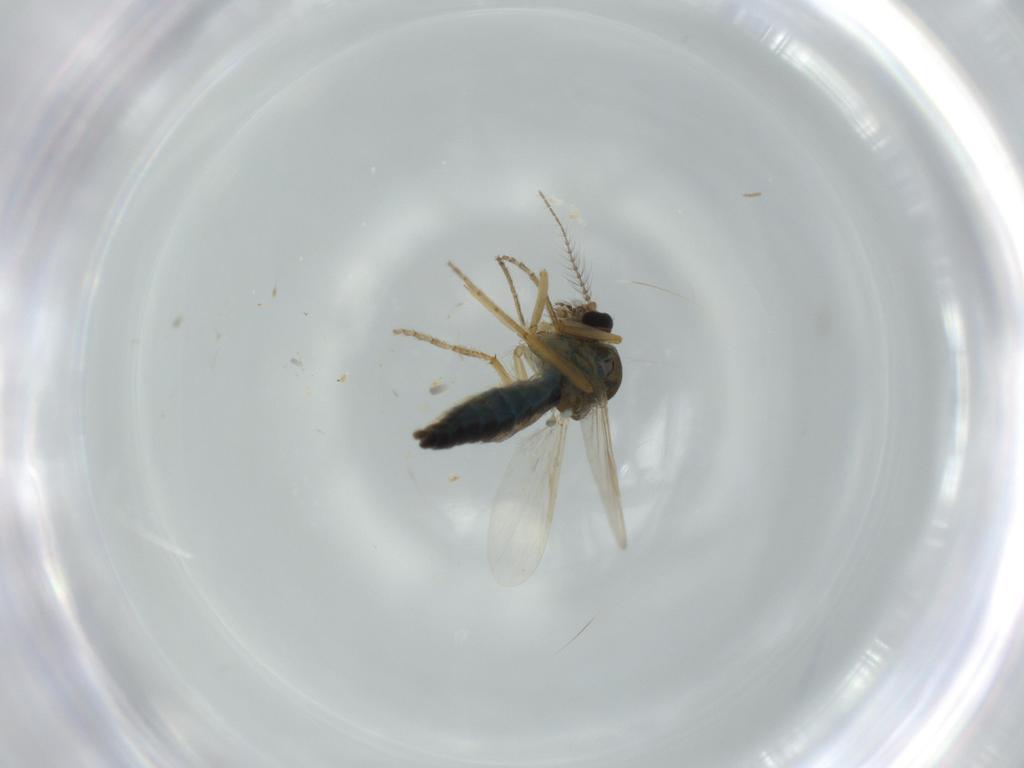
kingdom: Animalia
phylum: Arthropoda
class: Insecta
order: Diptera
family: Ceratopogonidae
